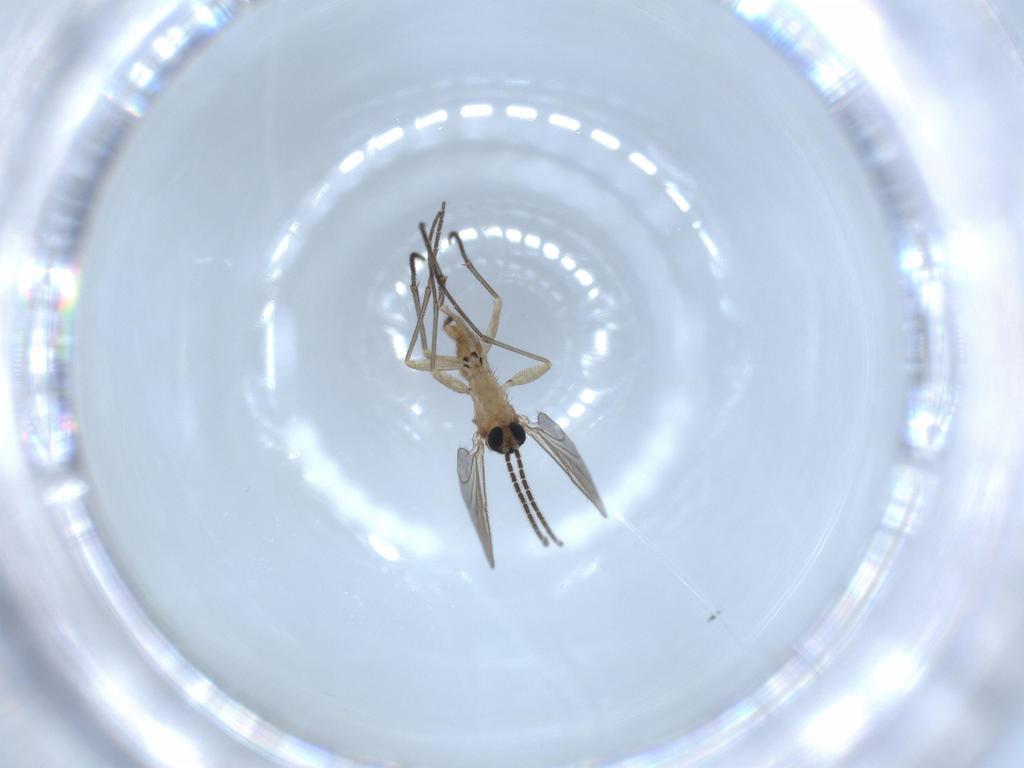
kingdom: Animalia
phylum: Arthropoda
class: Insecta
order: Diptera
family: Sciaridae
